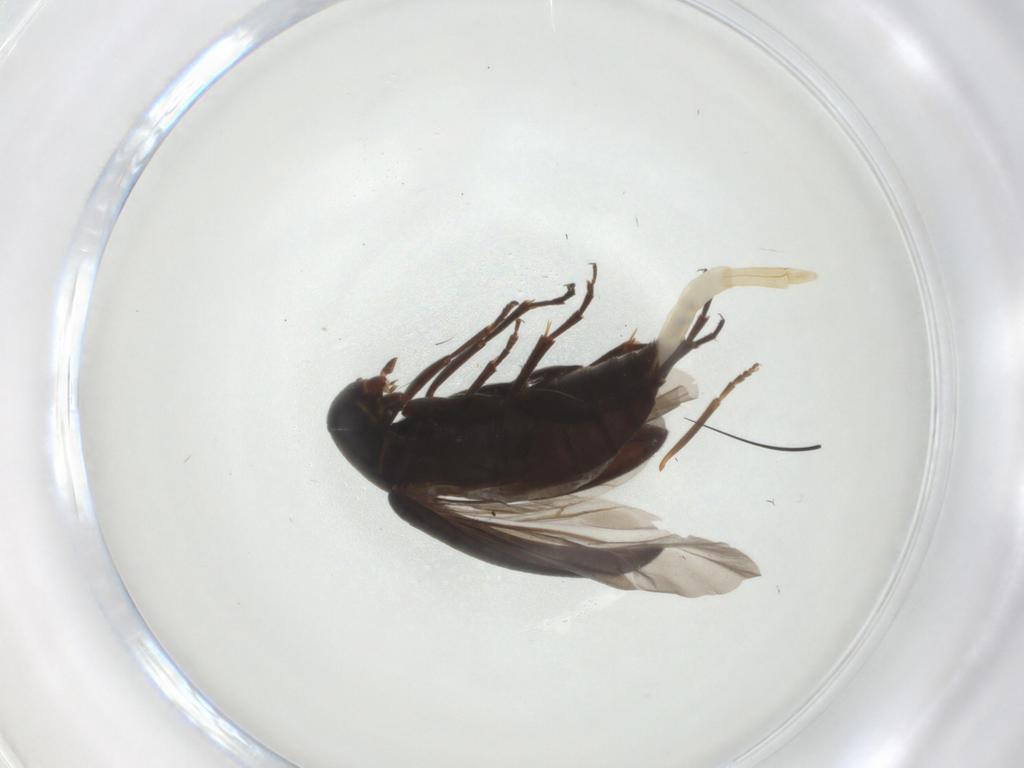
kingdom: Animalia
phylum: Arthropoda
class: Insecta
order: Coleoptera
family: Scraptiidae
